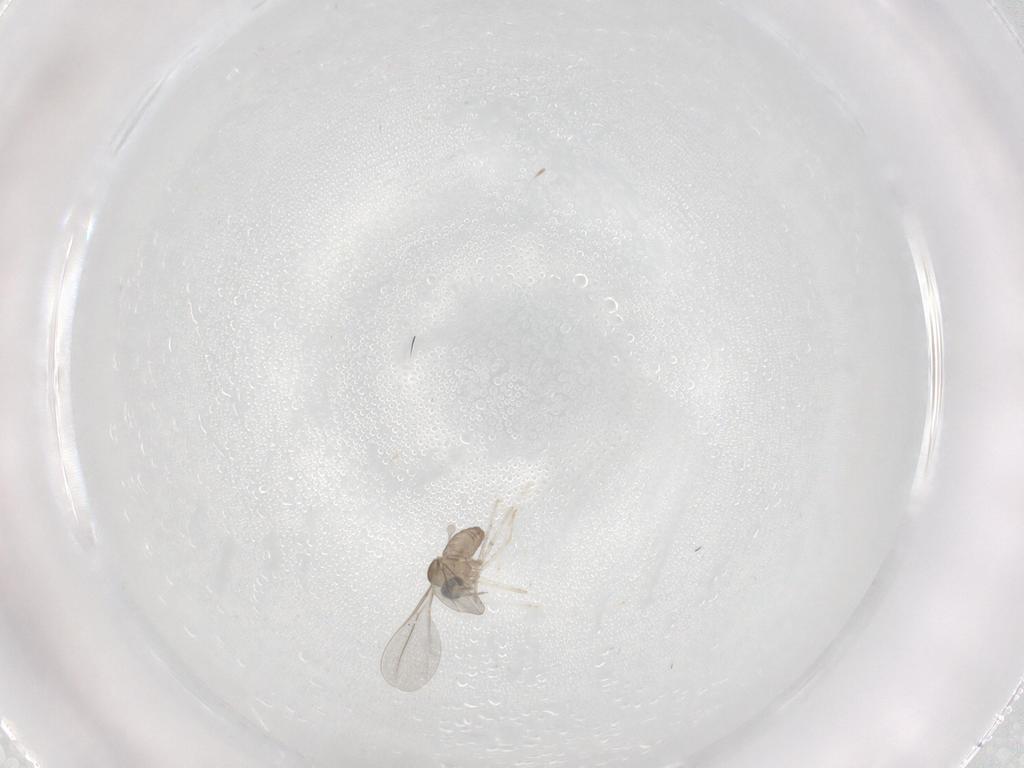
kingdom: Animalia
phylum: Arthropoda
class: Insecta
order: Diptera
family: Cecidomyiidae
